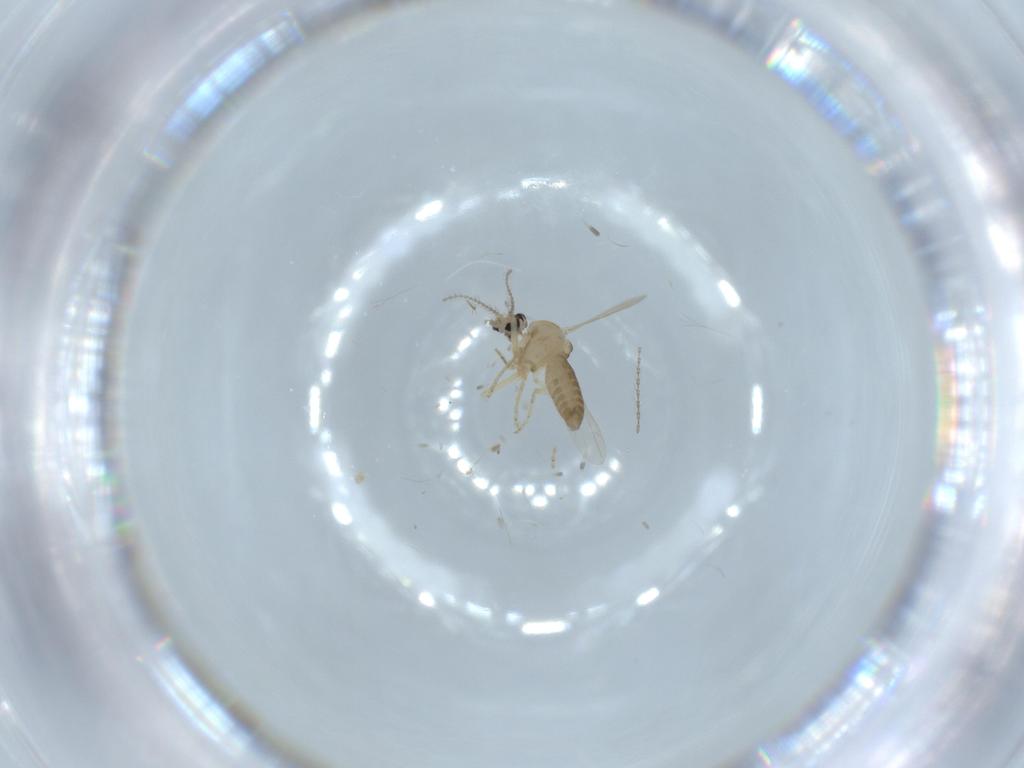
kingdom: Animalia
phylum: Arthropoda
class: Insecta
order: Diptera
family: Ceratopogonidae
